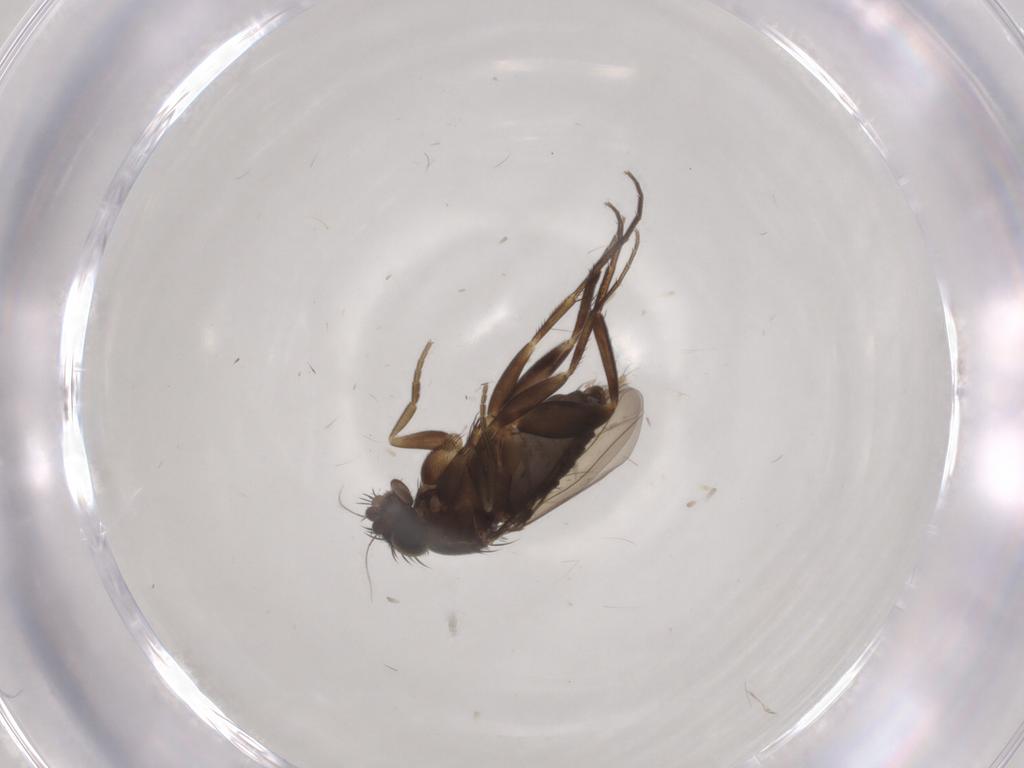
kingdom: Animalia
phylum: Arthropoda
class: Insecta
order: Diptera
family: Phoridae
